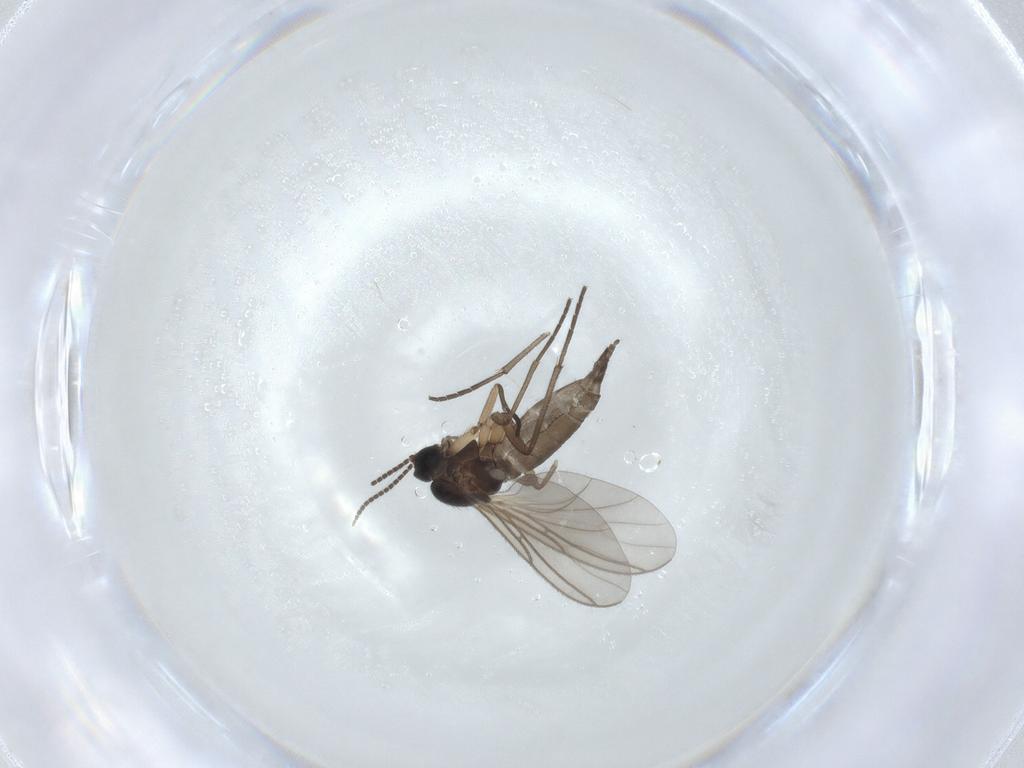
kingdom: Animalia
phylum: Arthropoda
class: Insecta
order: Diptera
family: Sciaridae
